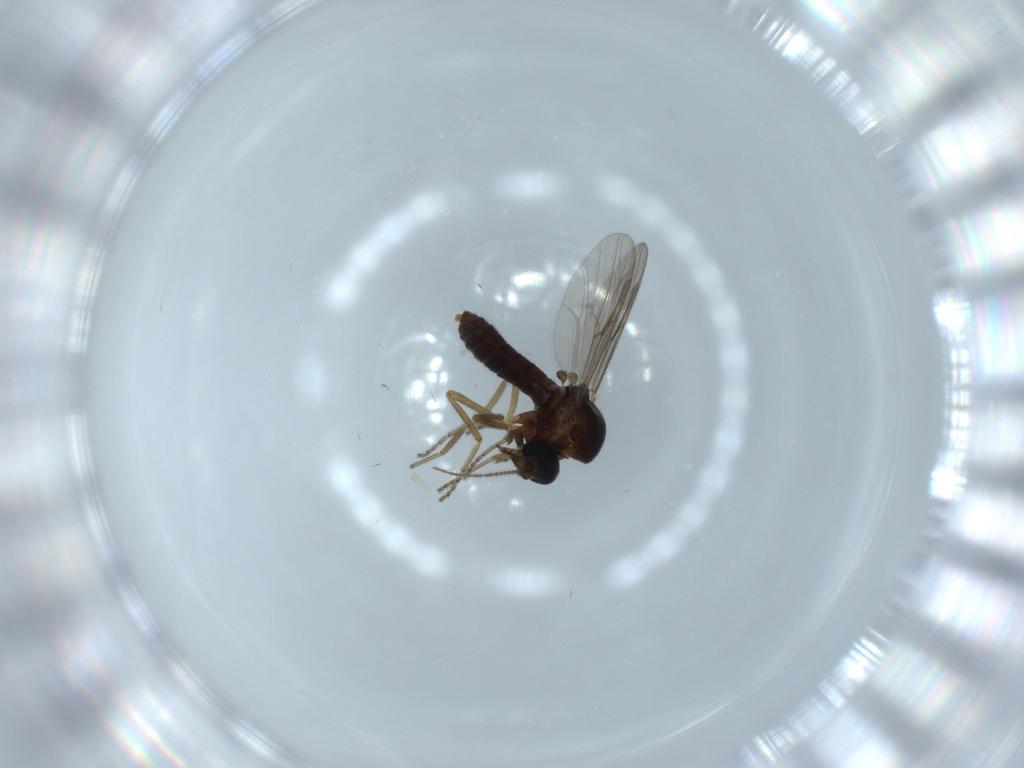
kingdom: Animalia
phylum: Arthropoda
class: Insecta
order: Diptera
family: Ceratopogonidae
